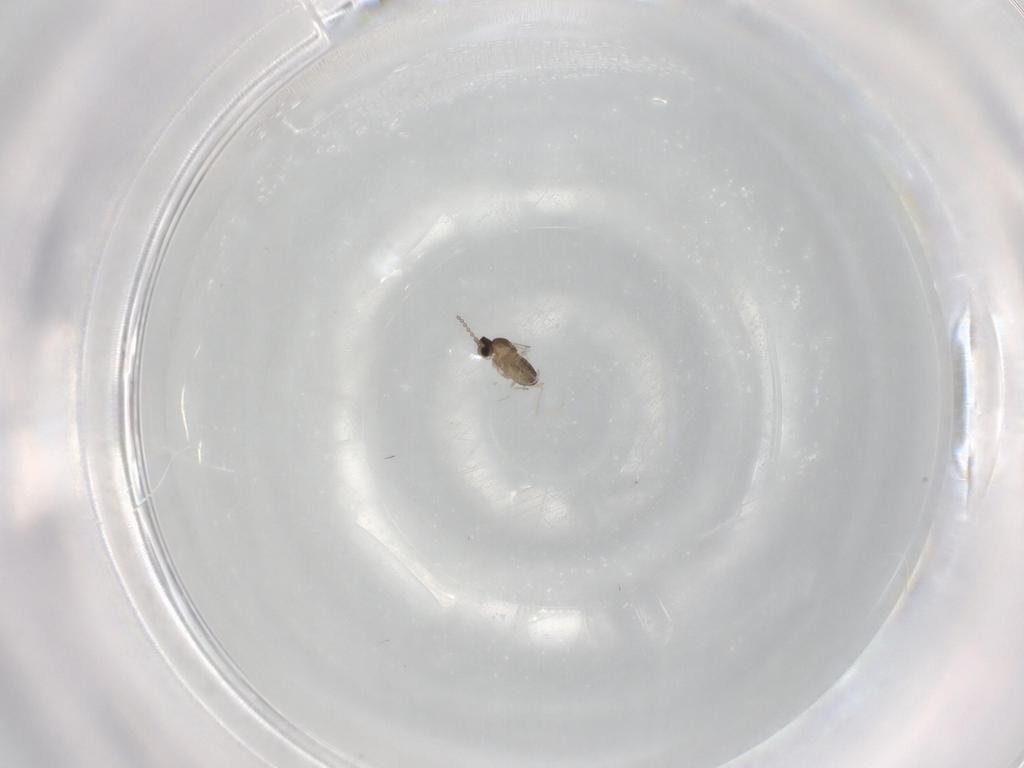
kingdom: Animalia
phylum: Arthropoda
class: Insecta
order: Diptera
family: Cecidomyiidae
